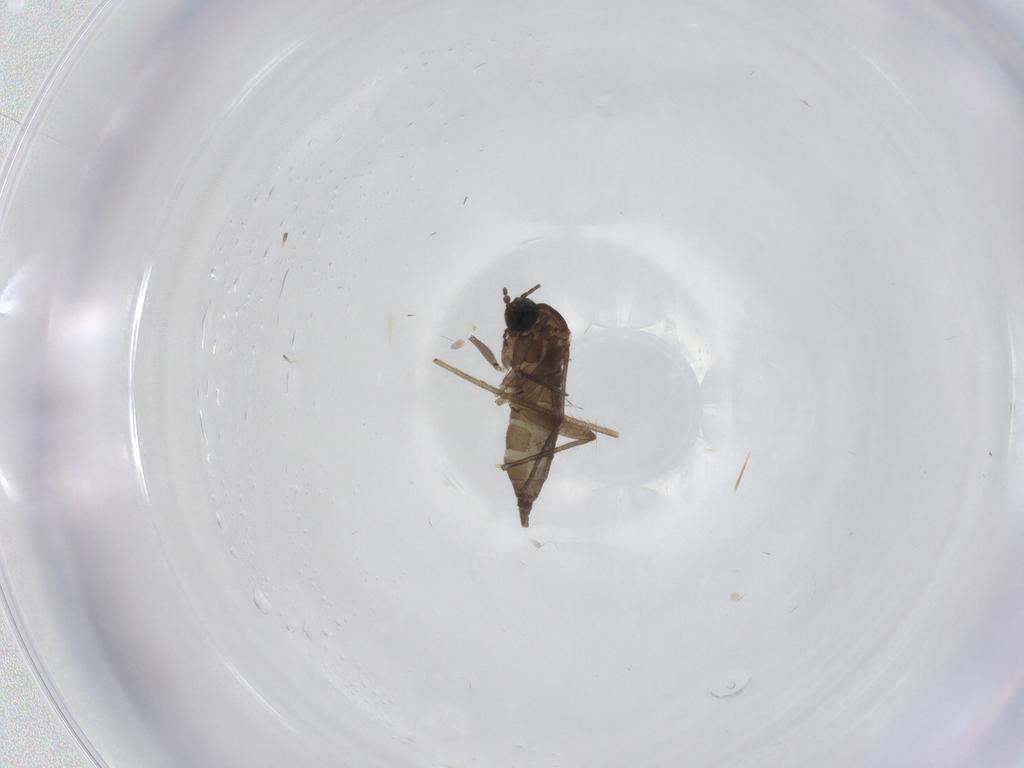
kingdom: Animalia
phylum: Arthropoda
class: Insecta
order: Diptera
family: Sciaridae
